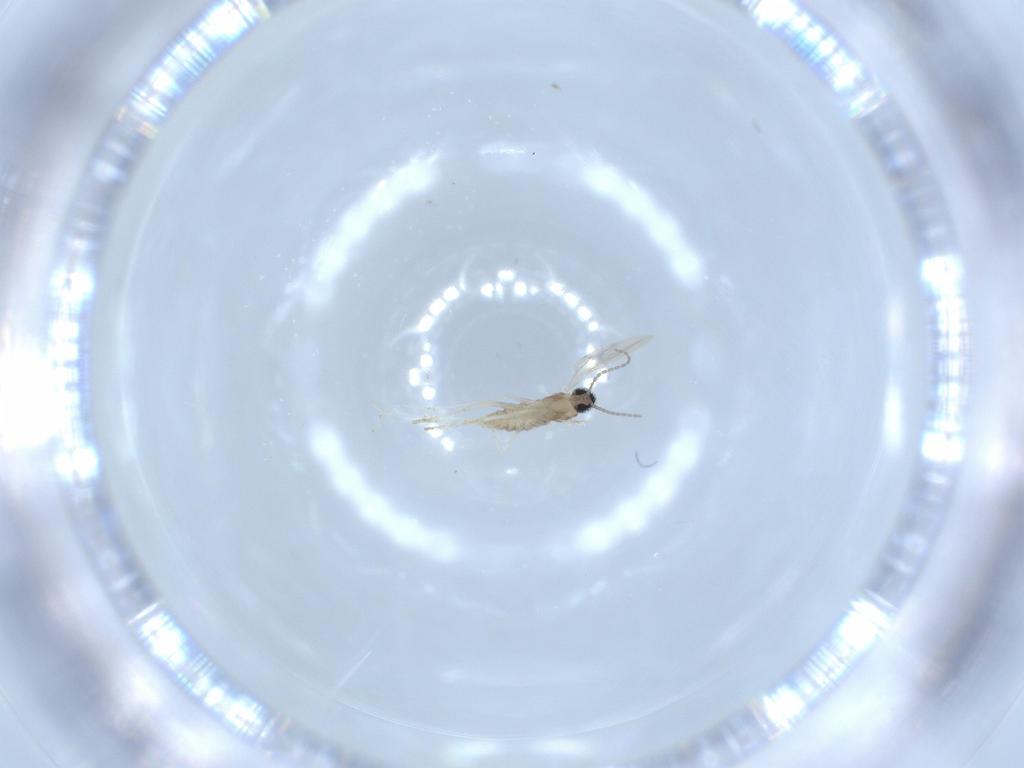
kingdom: Animalia
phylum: Arthropoda
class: Insecta
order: Diptera
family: Cecidomyiidae
